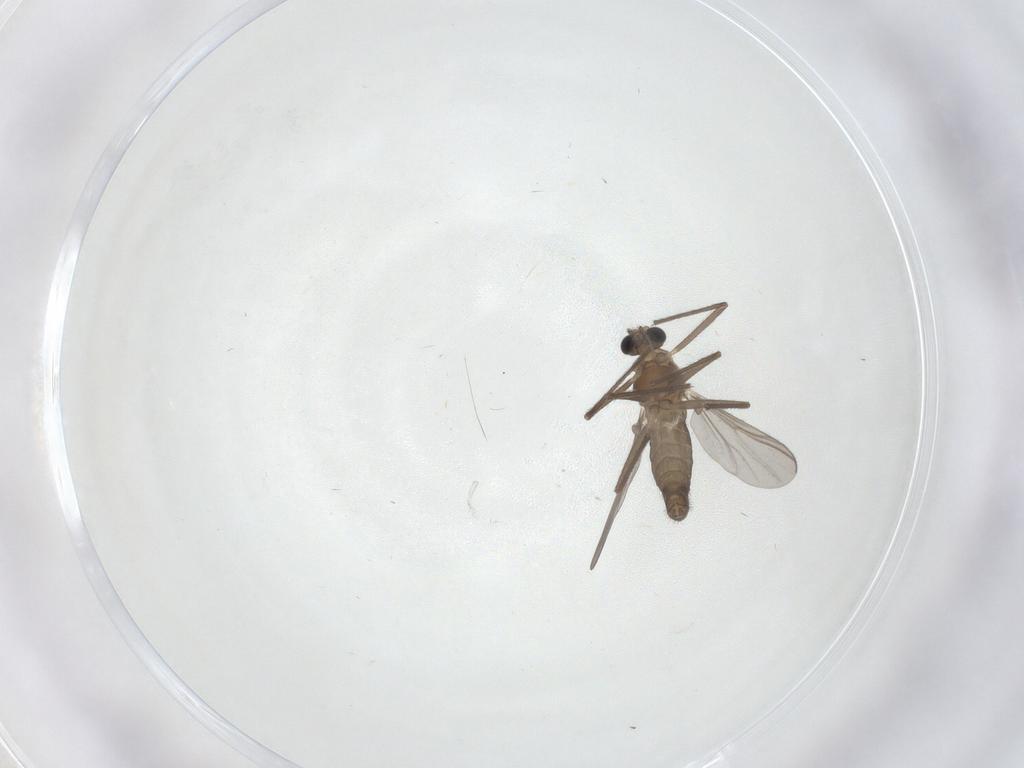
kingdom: Animalia
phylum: Arthropoda
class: Insecta
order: Diptera
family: Chironomidae
